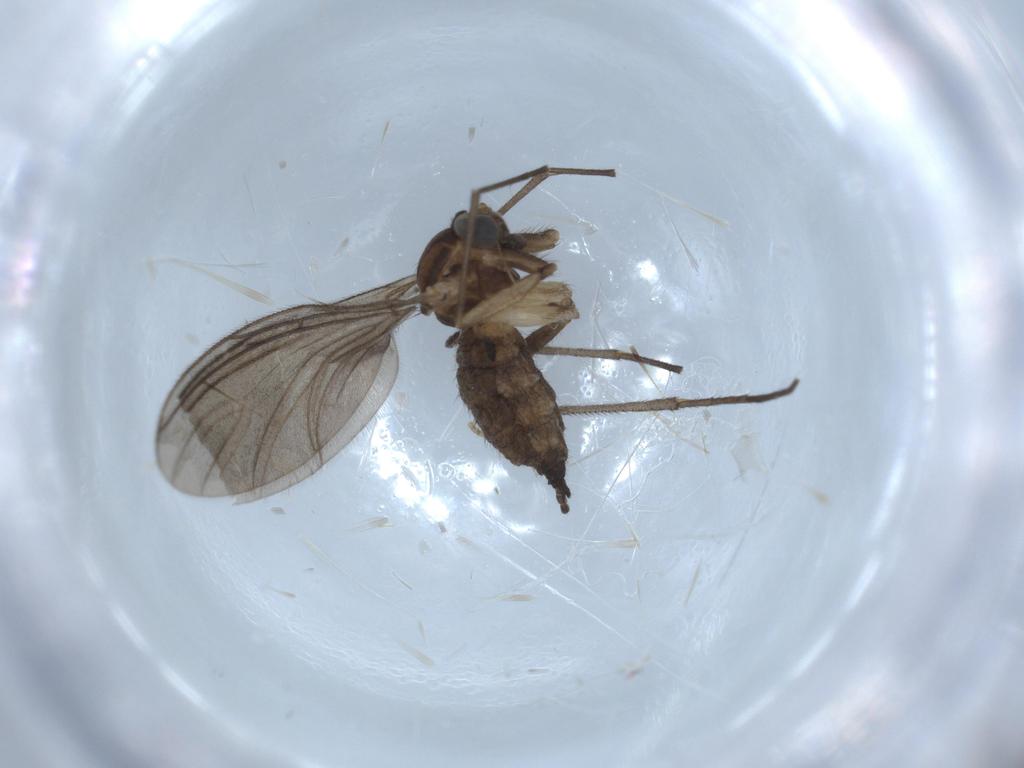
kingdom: Animalia
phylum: Arthropoda
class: Insecta
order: Diptera
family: Sciaridae
